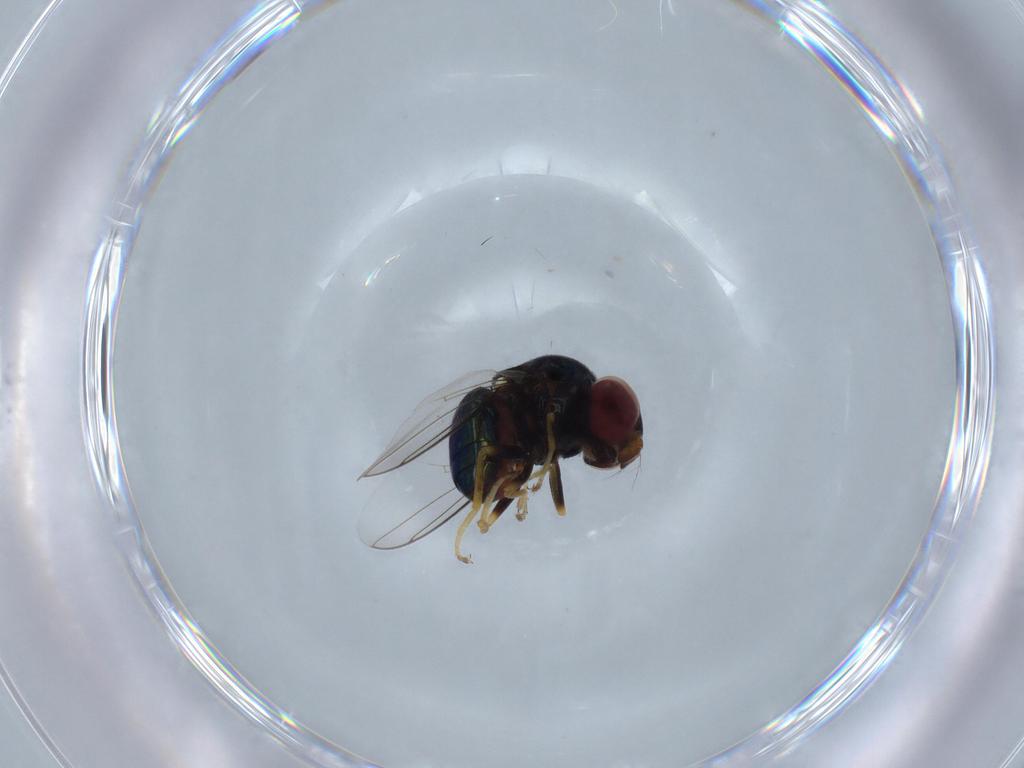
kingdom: Animalia
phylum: Arthropoda
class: Insecta
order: Diptera
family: Chloropidae
